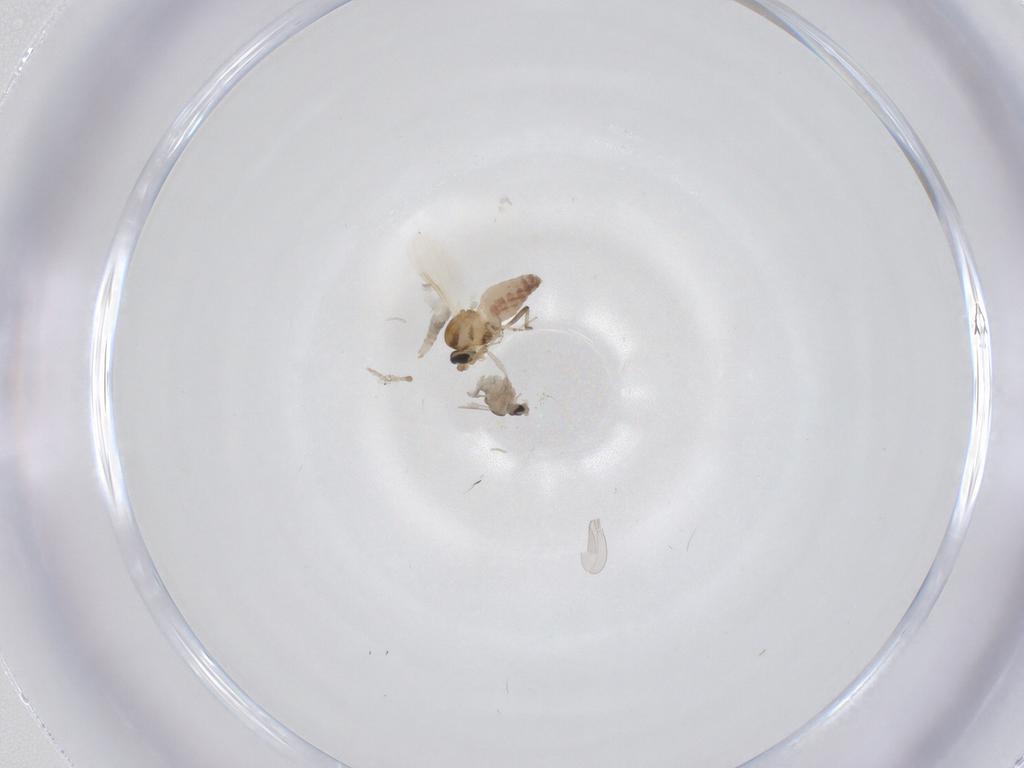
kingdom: Animalia
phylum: Arthropoda
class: Insecta
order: Diptera
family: Cecidomyiidae
